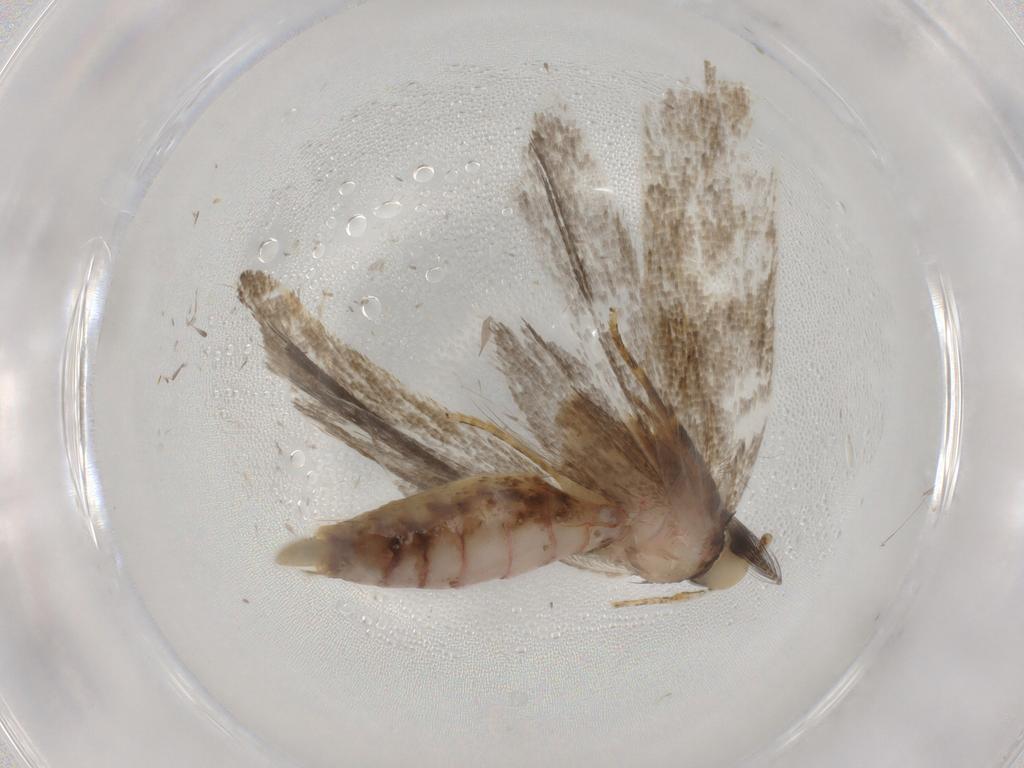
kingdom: Animalia
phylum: Arthropoda
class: Insecta
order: Lepidoptera
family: Autostichidae
